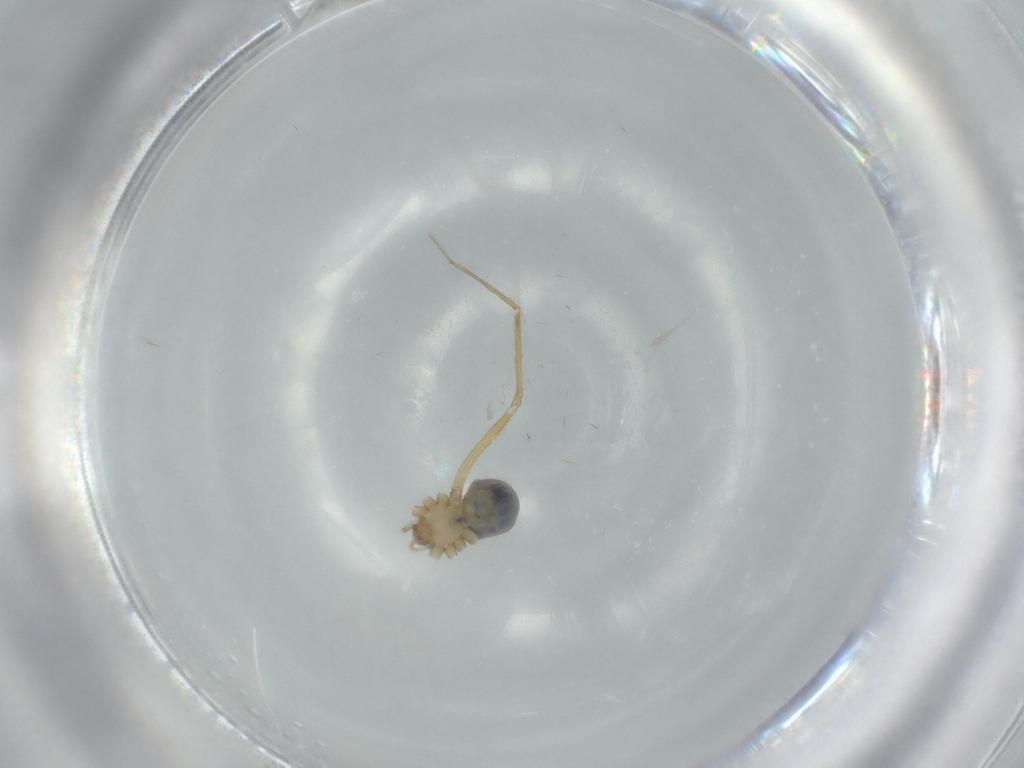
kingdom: Animalia
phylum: Arthropoda
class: Arachnida
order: Araneae
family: Pholcidae
